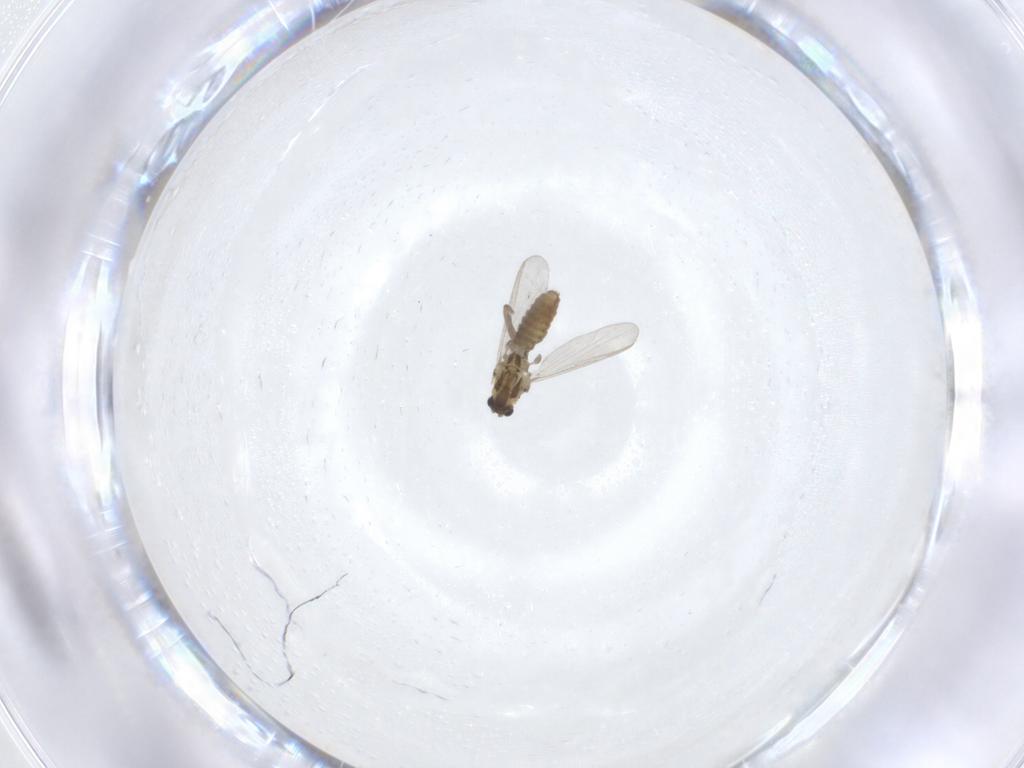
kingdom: Animalia
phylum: Arthropoda
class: Insecta
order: Diptera
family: Chironomidae
